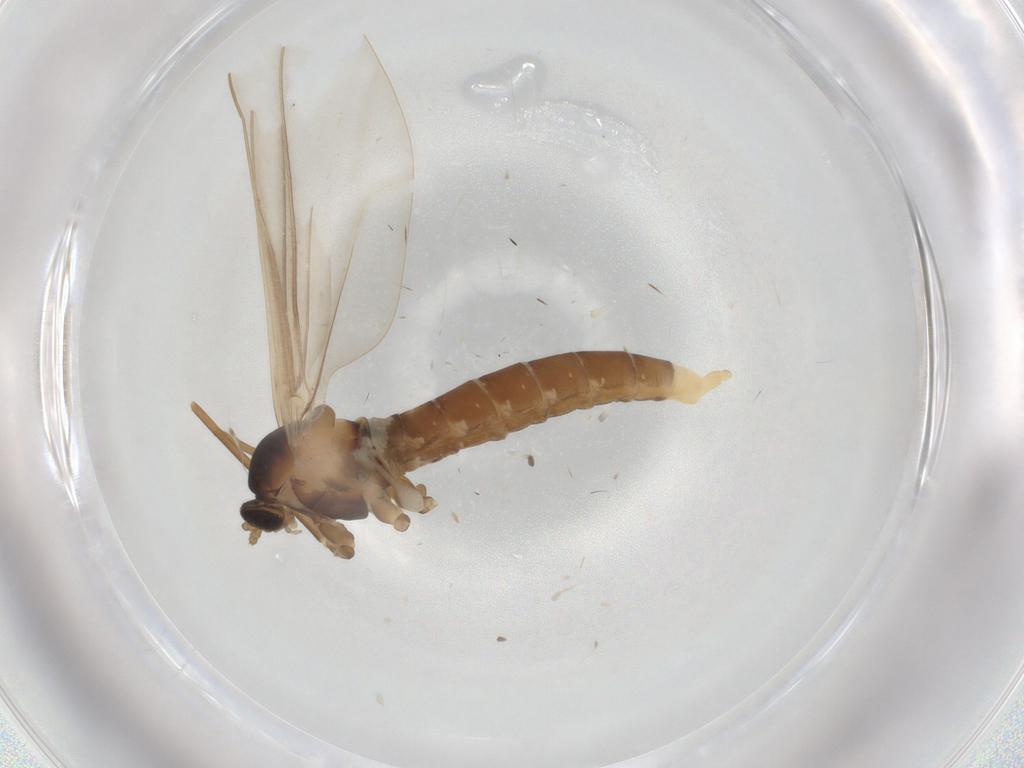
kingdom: Animalia
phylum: Arthropoda
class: Insecta
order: Diptera
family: Cecidomyiidae
